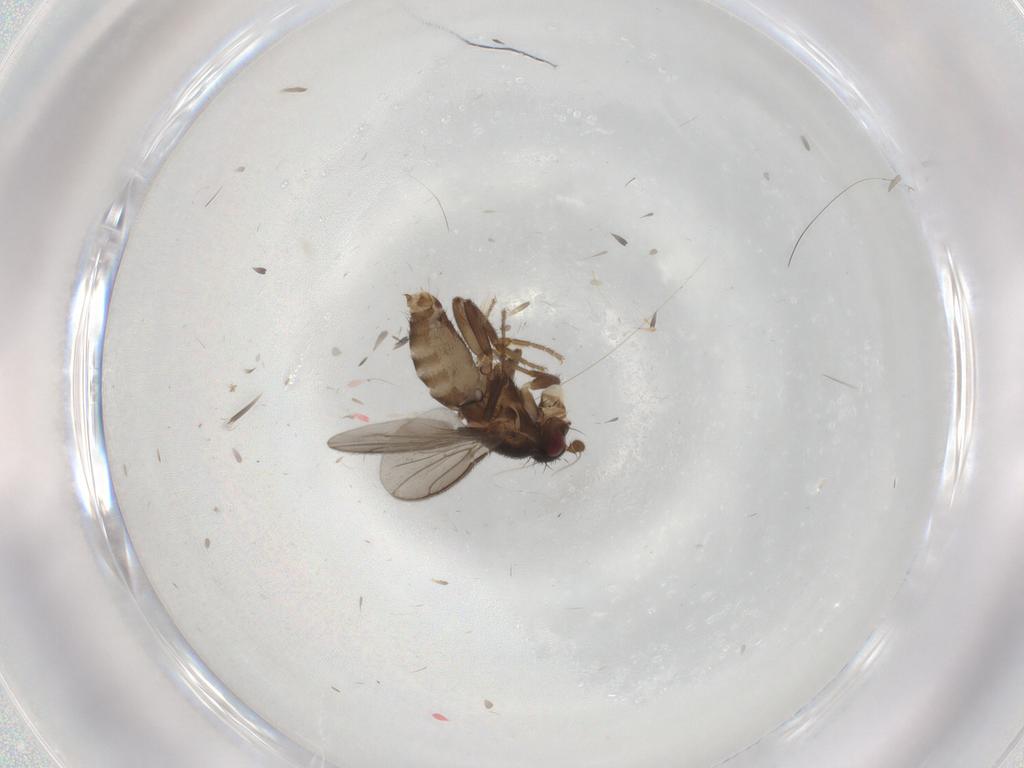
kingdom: Animalia
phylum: Arthropoda
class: Insecta
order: Diptera
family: Sphaeroceridae
